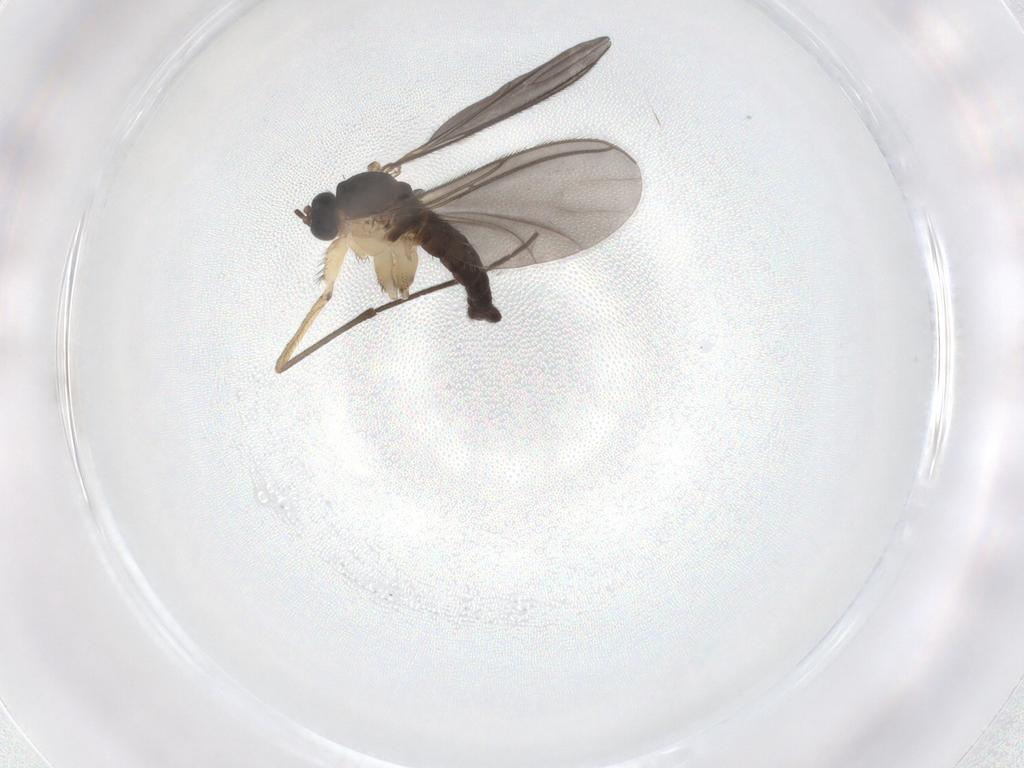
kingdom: Animalia
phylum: Arthropoda
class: Insecta
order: Diptera
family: Sciaridae
